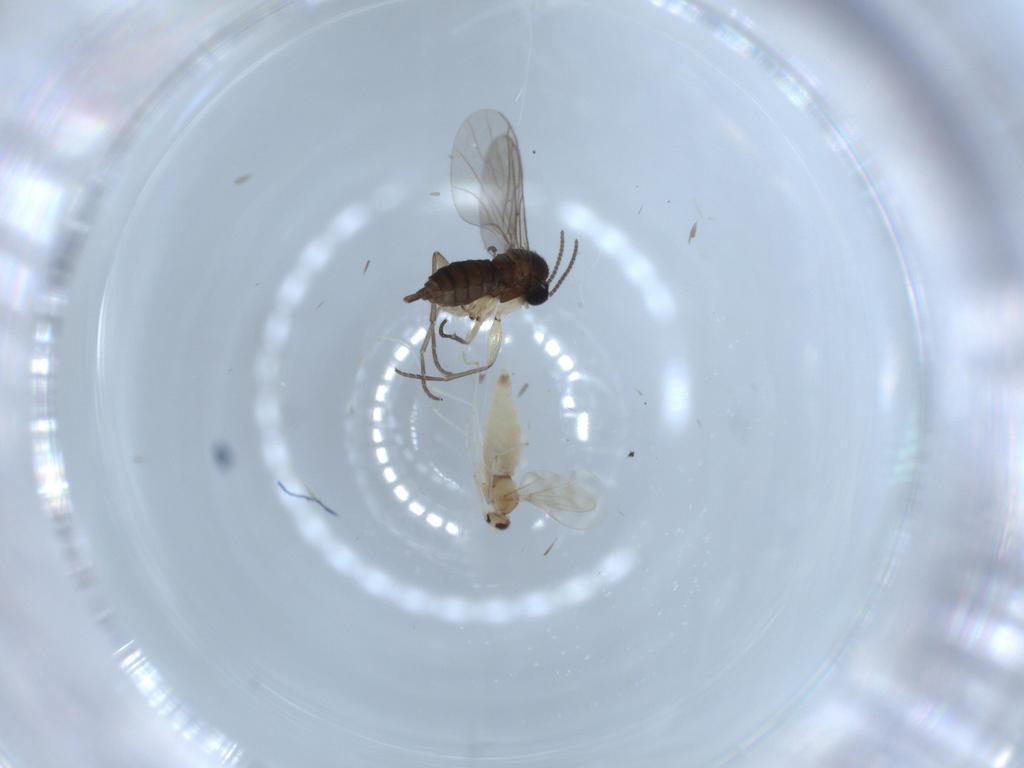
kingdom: Animalia
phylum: Arthropoda
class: Insecta
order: Diptera
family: Sciaridae
